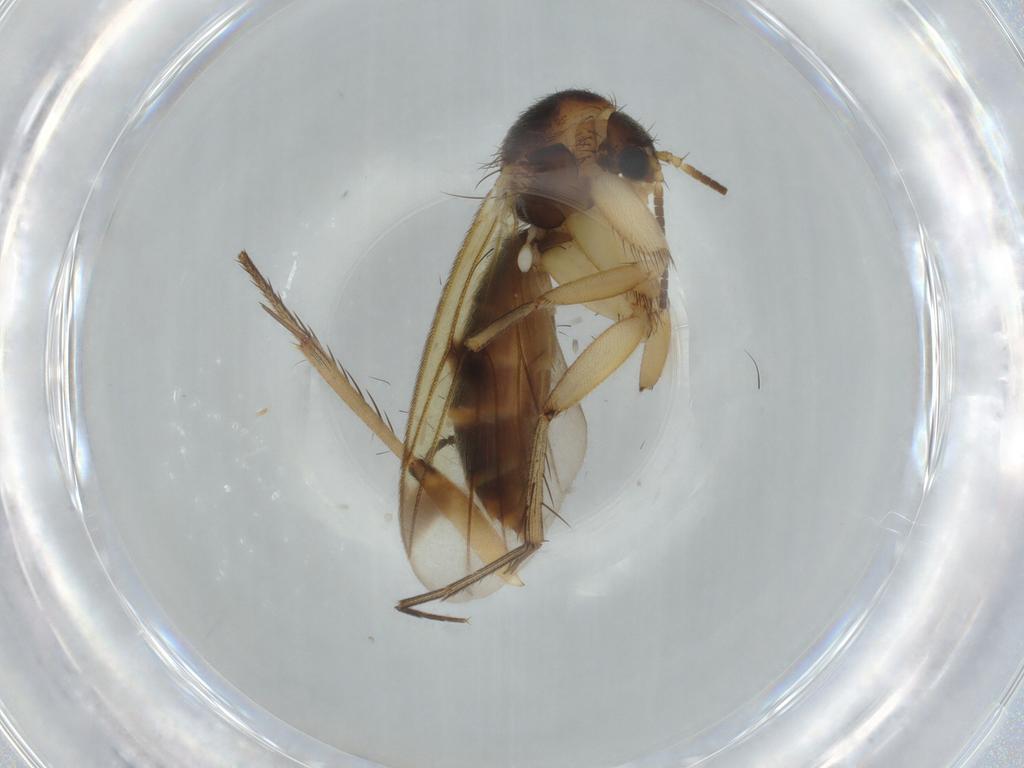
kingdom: Animalia
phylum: Arthropoda
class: Insecta
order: Diptera
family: Mycetophilidae
